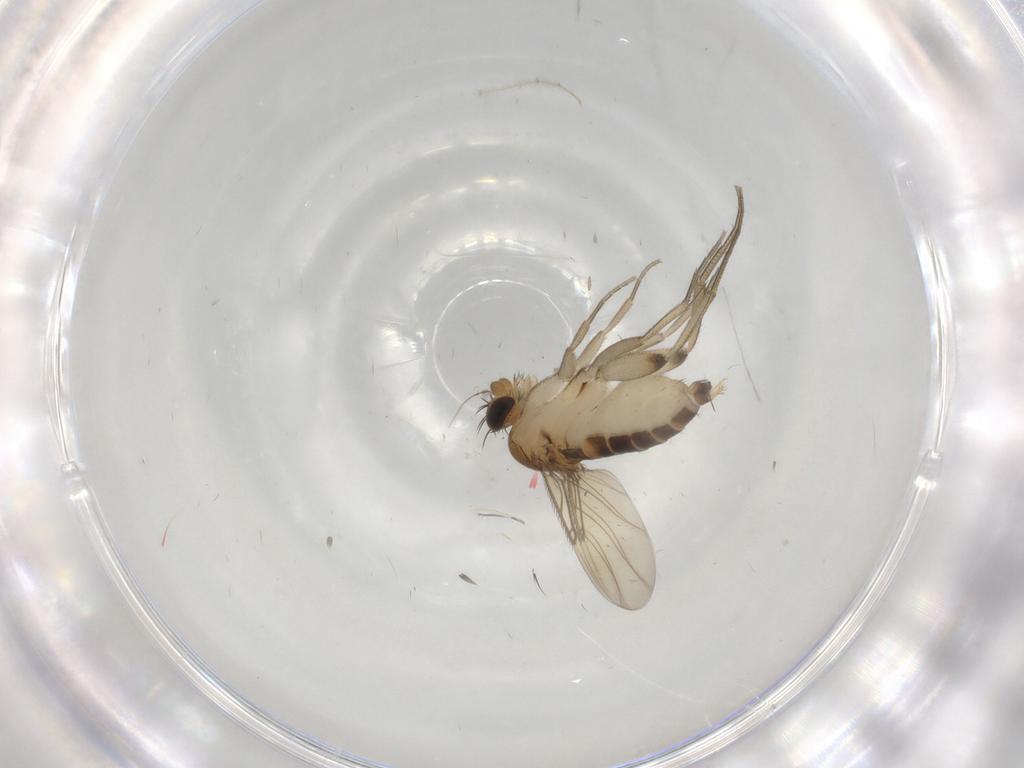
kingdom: Animalia
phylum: Arthropoda
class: Insecta
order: Diptera
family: Phoridae
